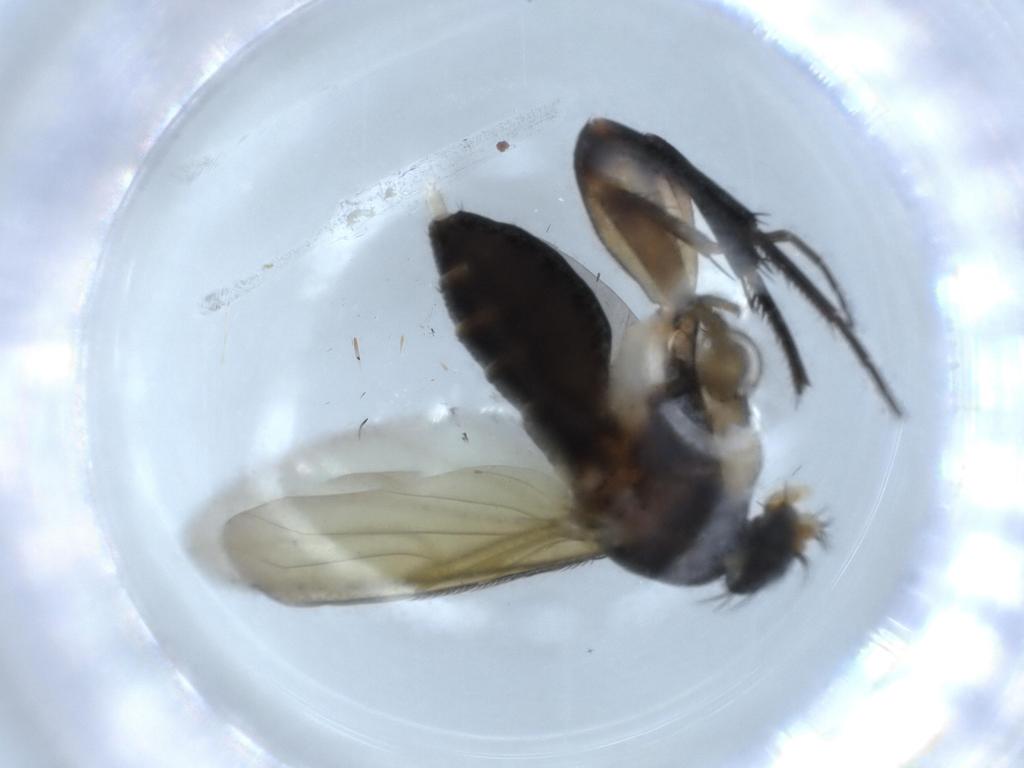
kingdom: Animalia
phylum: Arthropoda
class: Insecta
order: Diptera
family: Phoridae
